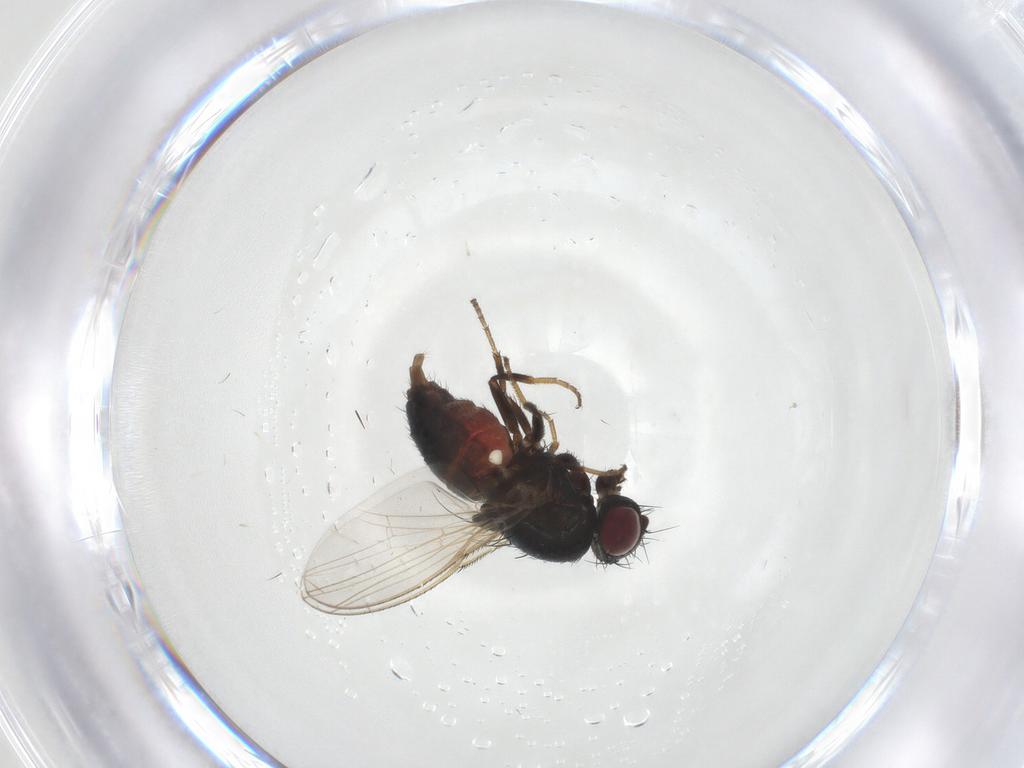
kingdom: Animalia
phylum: Arthropoda
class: Insecta
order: Diptera
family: Carnidae
